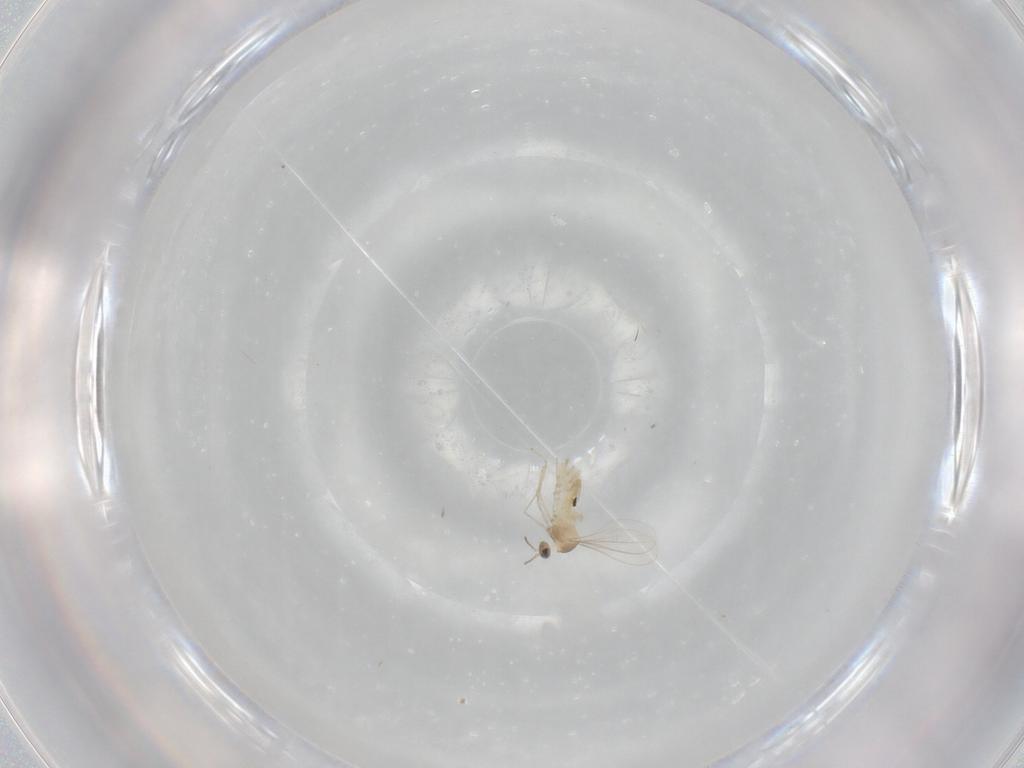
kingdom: Animalia
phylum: Arthropoda
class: Insecta
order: Diptera
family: Cecidomyiidae
